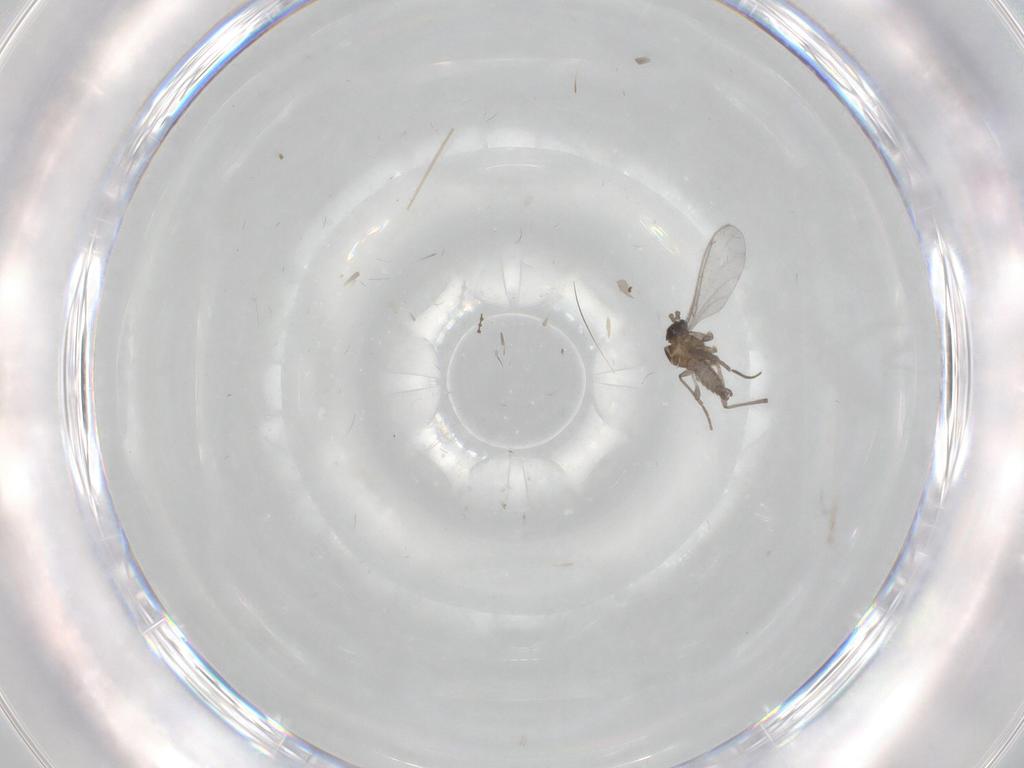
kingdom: Animalia
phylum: Arthropoda
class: Insecta
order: Diptera
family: Sciaridae
